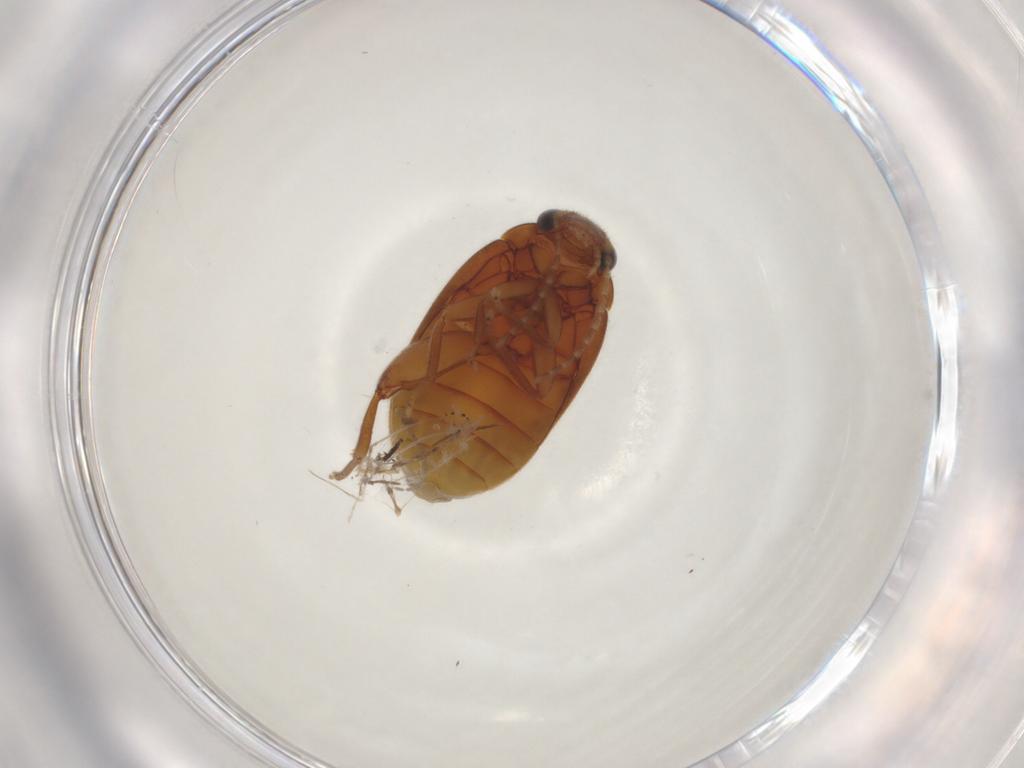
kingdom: Animalia
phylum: Arthropoda
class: Insecta
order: Coleoptera
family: Scirtidae
